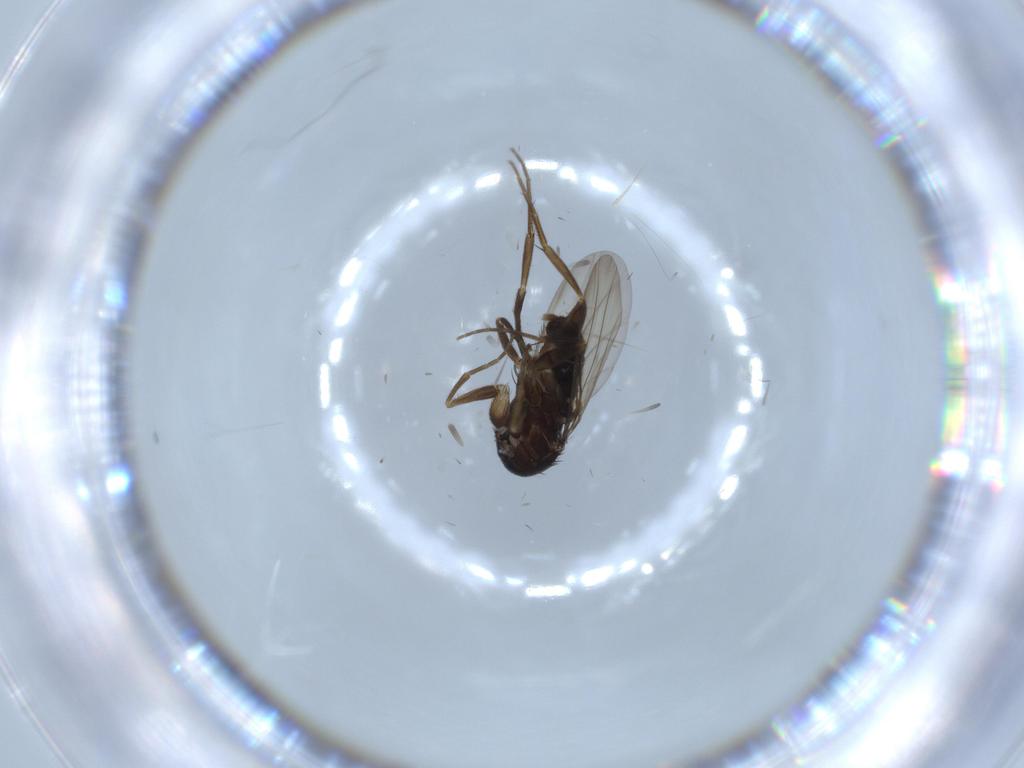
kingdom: Animalia
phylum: Arthropoda
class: Insecta
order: Diptera
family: Phoridae
